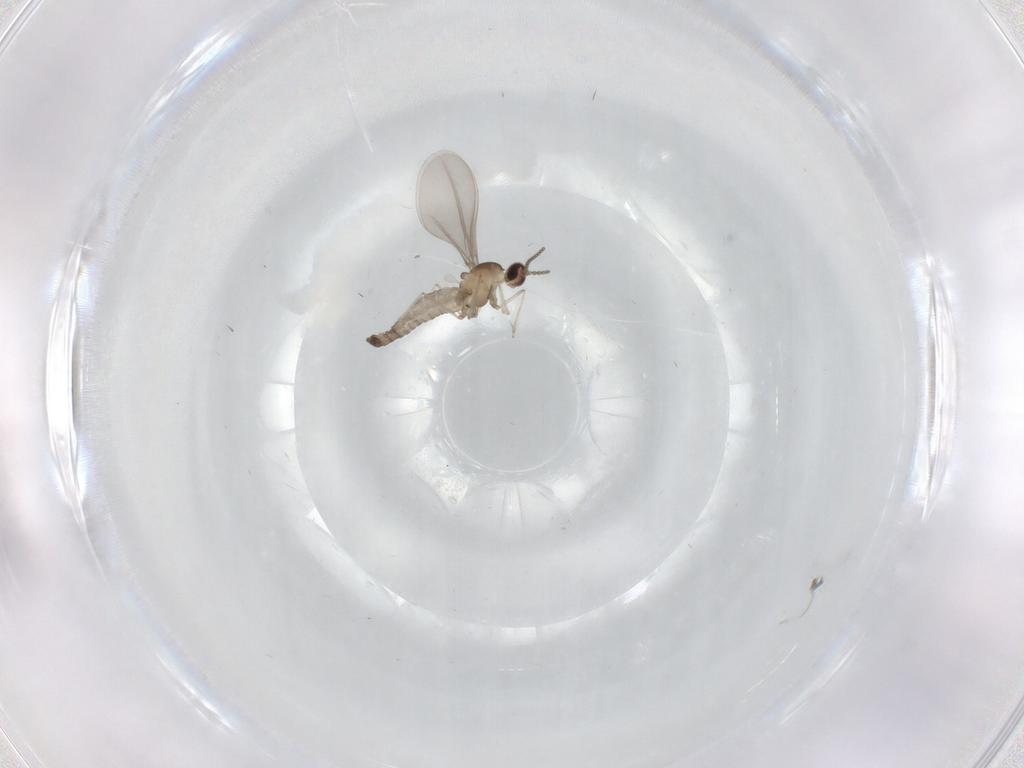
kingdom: Animalia
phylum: Arthropoda
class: Insecta
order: Diptera
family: Cecidomyiidae
